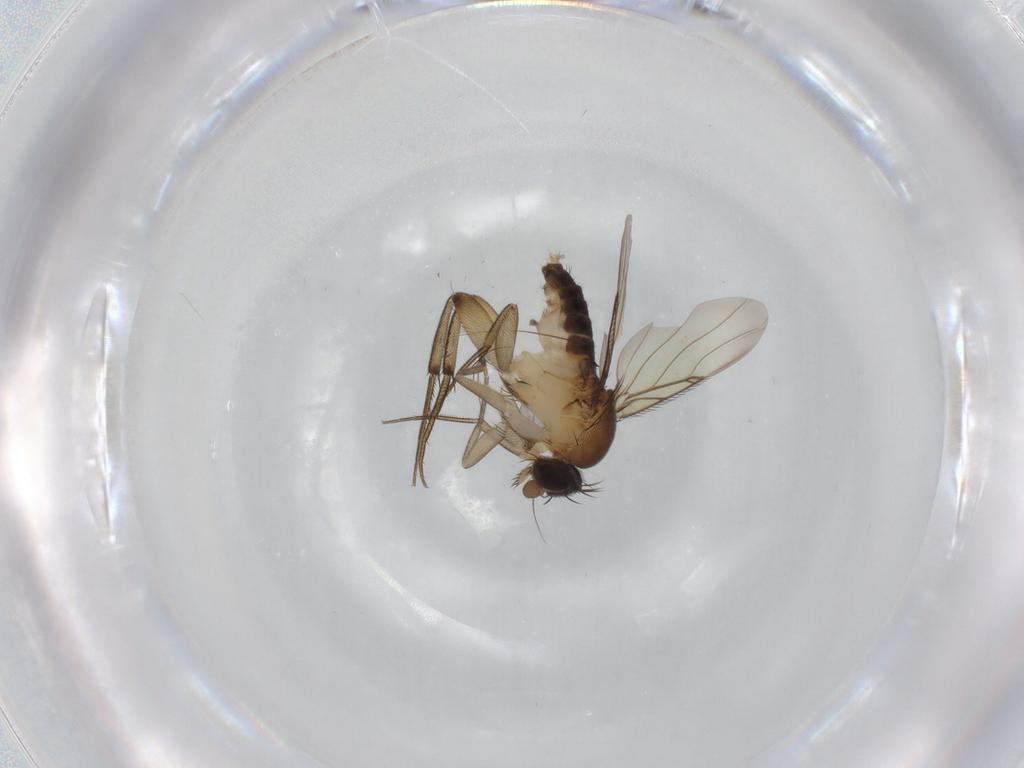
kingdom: Animalia
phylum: Arthropoda
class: Insecta
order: Diptera
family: Phoridae
